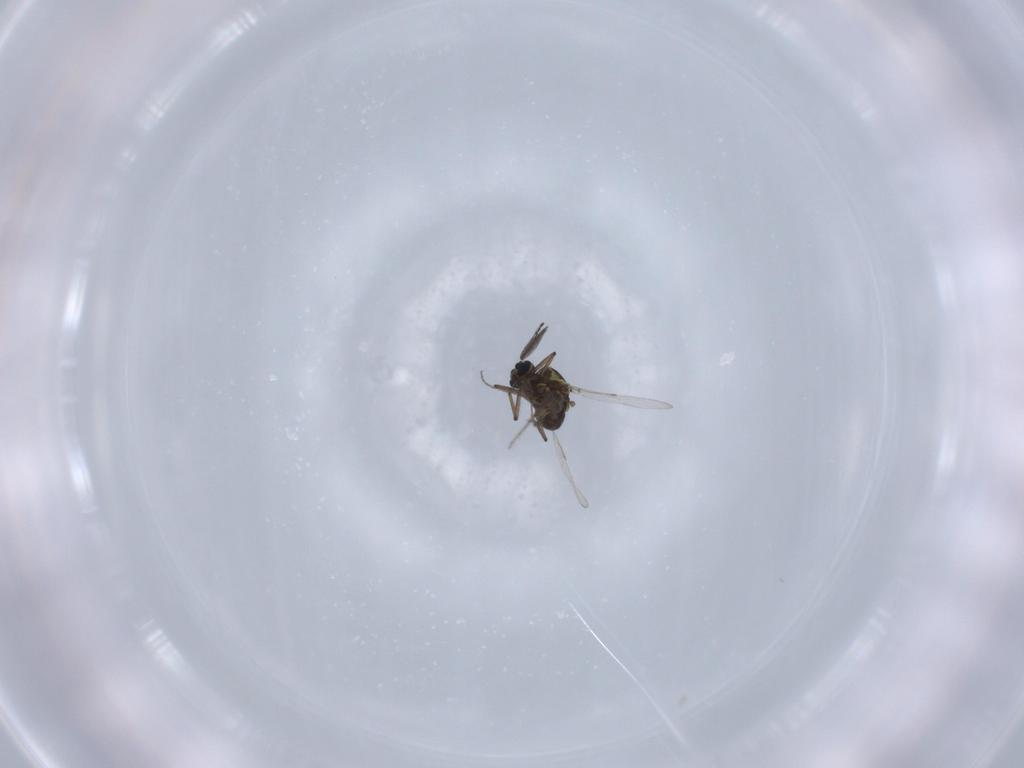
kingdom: Animalia
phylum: Arthropoda
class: Insecta
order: Diptera
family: Ceratopogonidae
